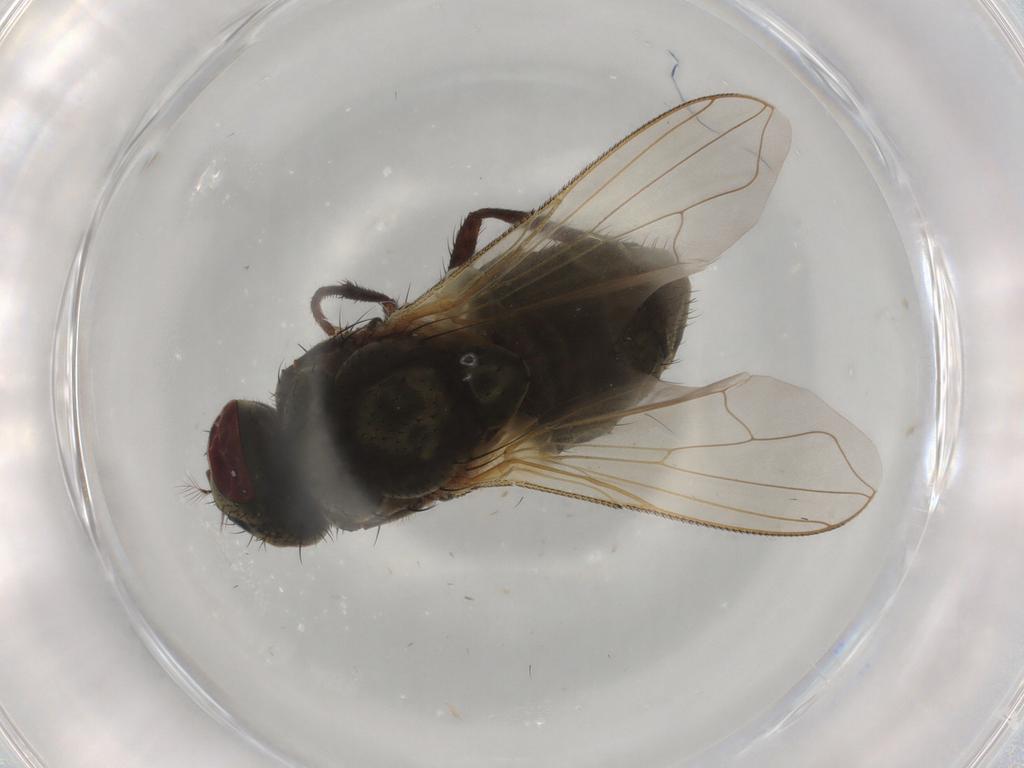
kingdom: Animalia
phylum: Arthropoda
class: Insecta
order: Diptera
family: Muscidae
